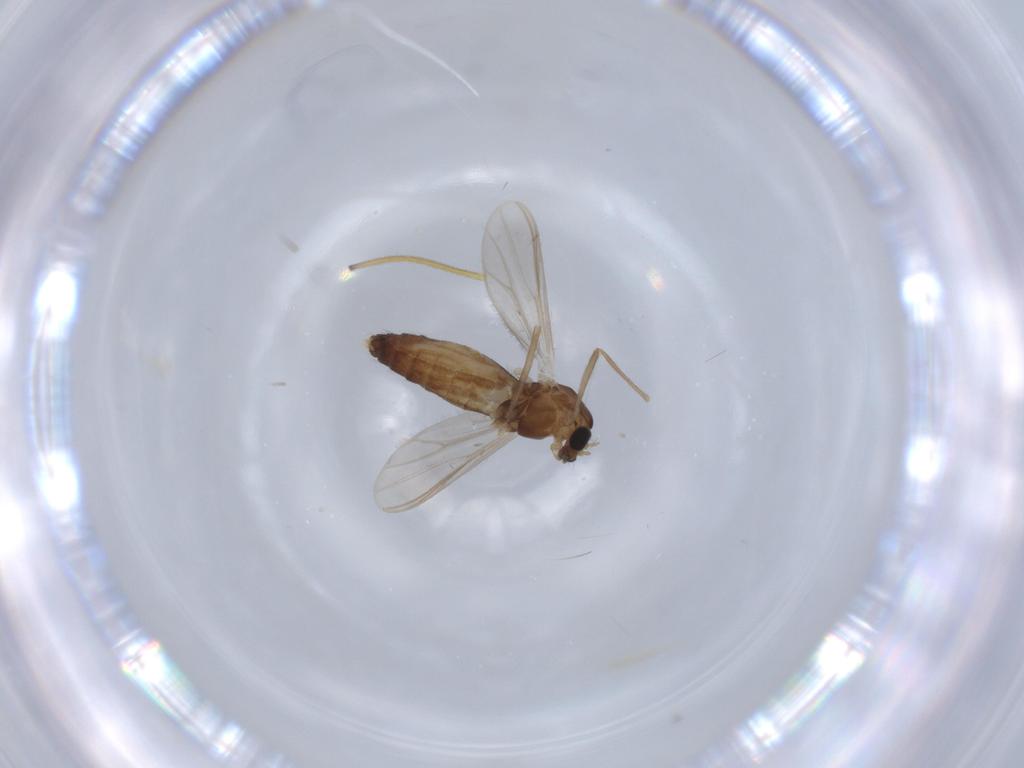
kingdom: Animalia
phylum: Arthropoda
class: Insecta
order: Diptera
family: Chironomidae
